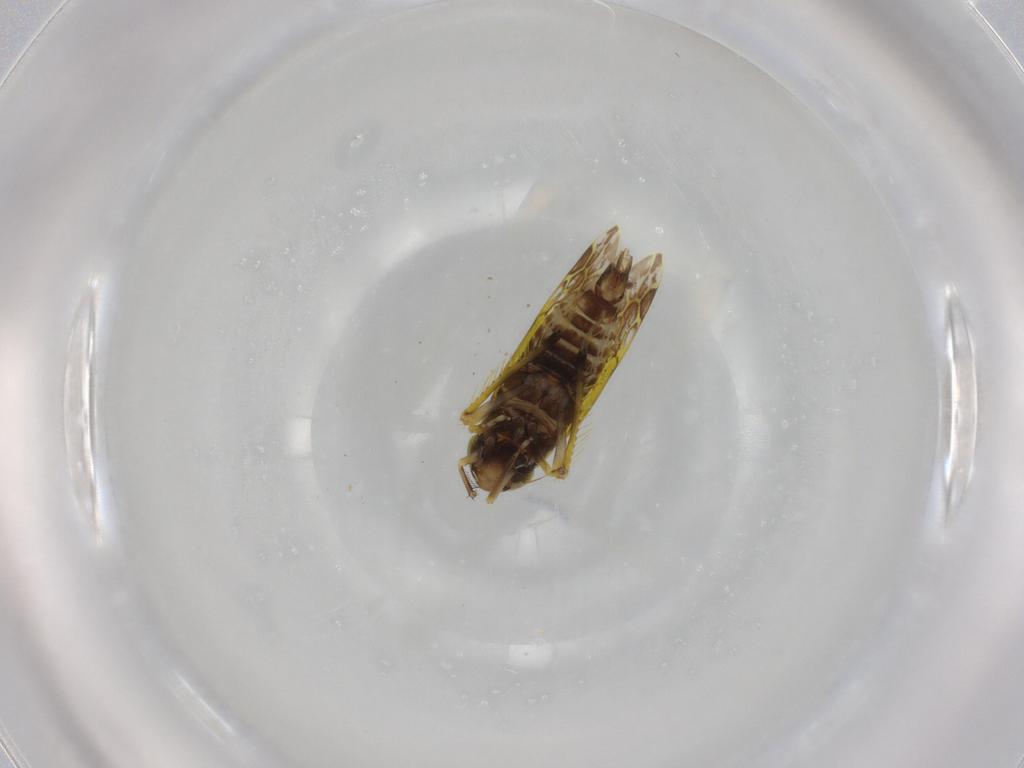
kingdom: Animalia
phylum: Arthropoda
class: Insecta
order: Hemiptera
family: Cicadellidae
